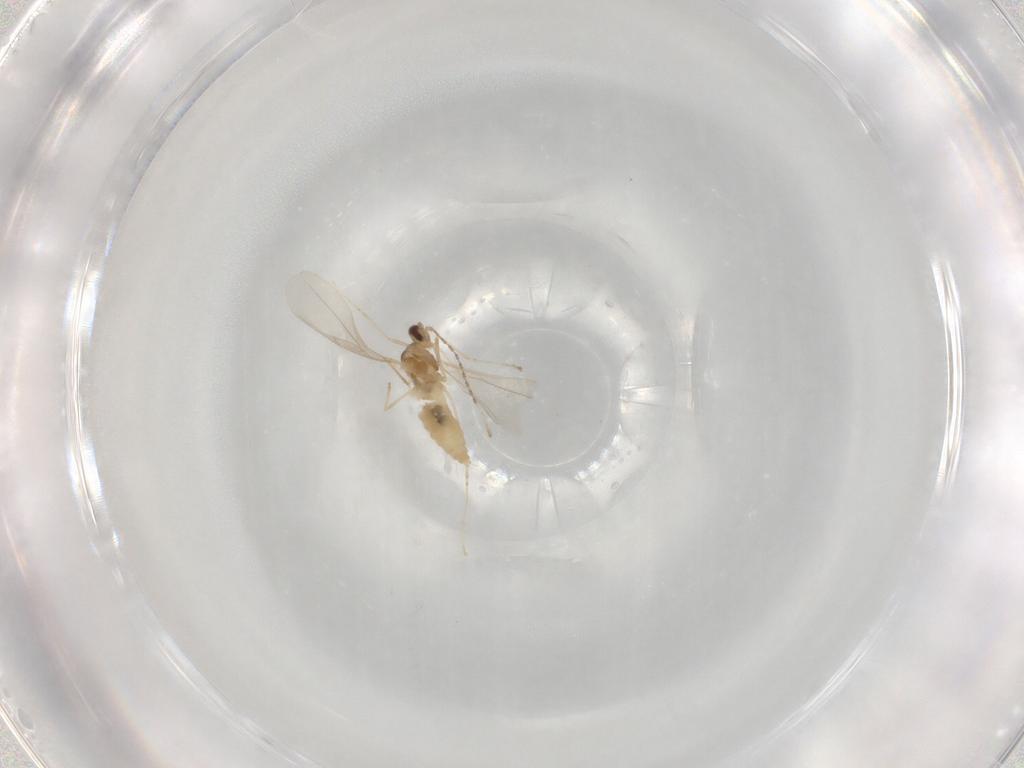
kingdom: Animalia
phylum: Arthropoda
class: Insecta
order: Diptera
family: Cecidomyiidae
